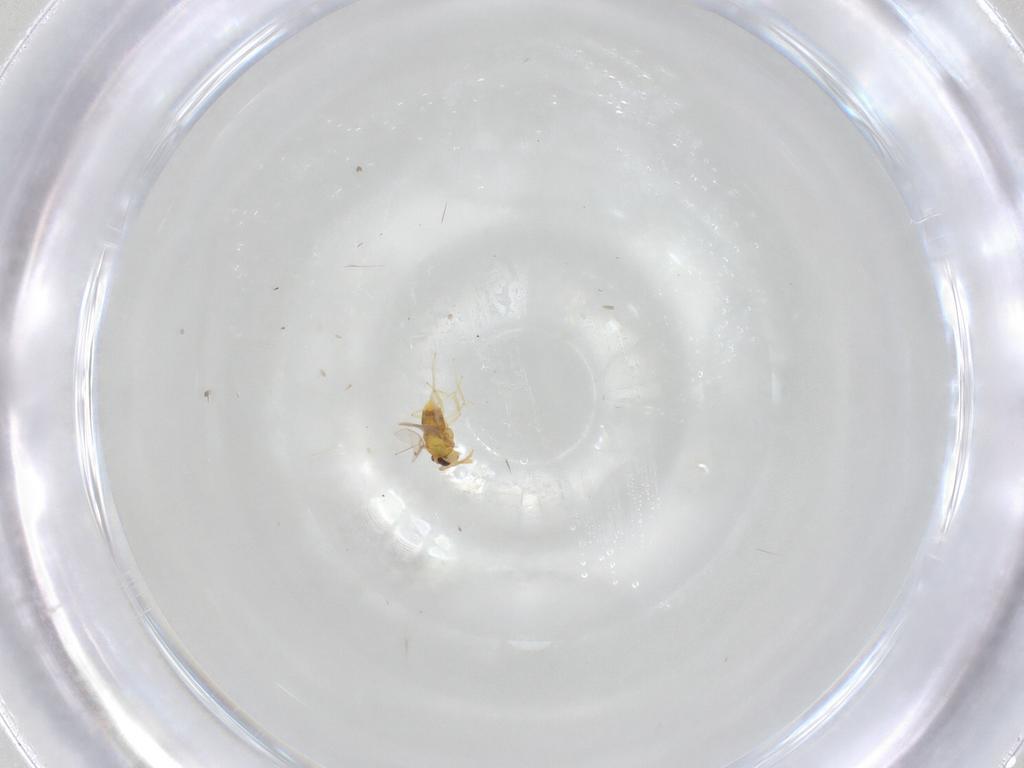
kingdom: Animalia
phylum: Arthropoda
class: Insecta
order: Hymenoptera
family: Aphelinidae
